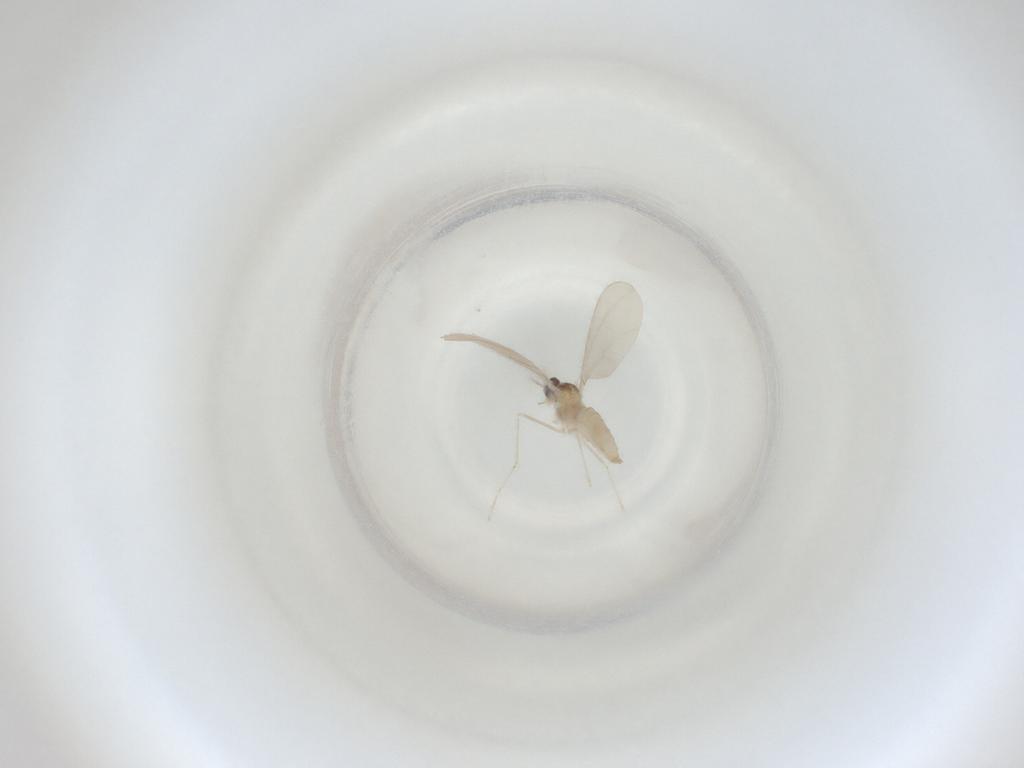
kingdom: Animalia
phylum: Arthropoda
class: Insecta
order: Diptera
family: Cecidomyiidae
